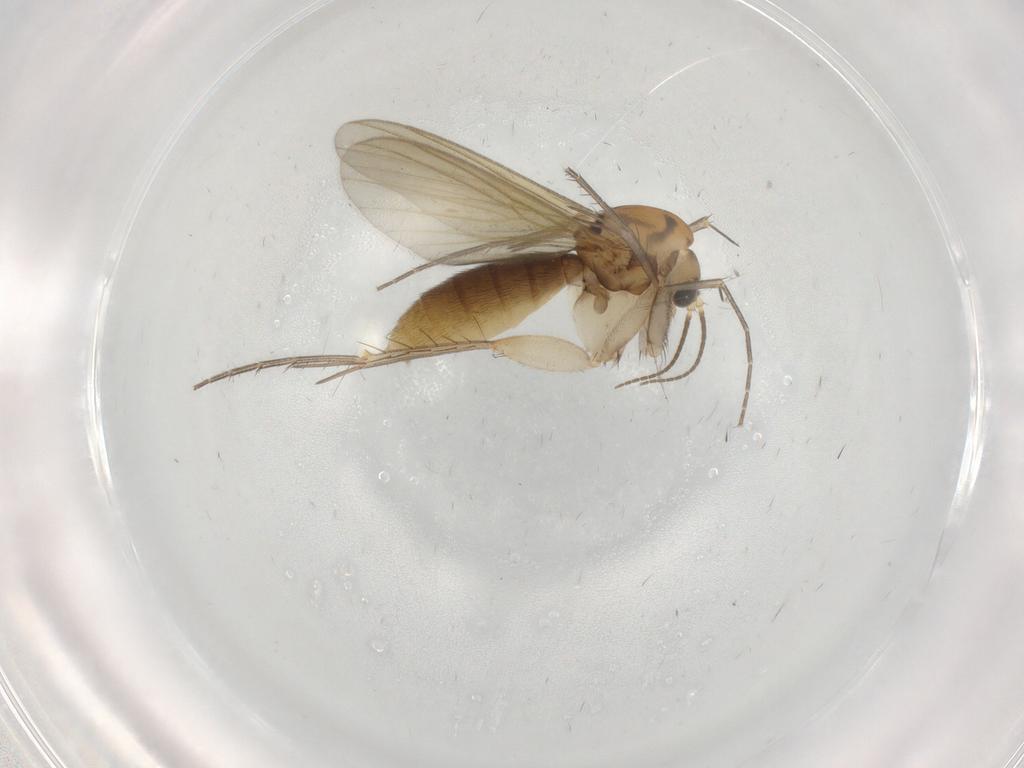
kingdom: Animalia
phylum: Arthropoda
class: Insecta
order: Diptera
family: Mycetophilidae
